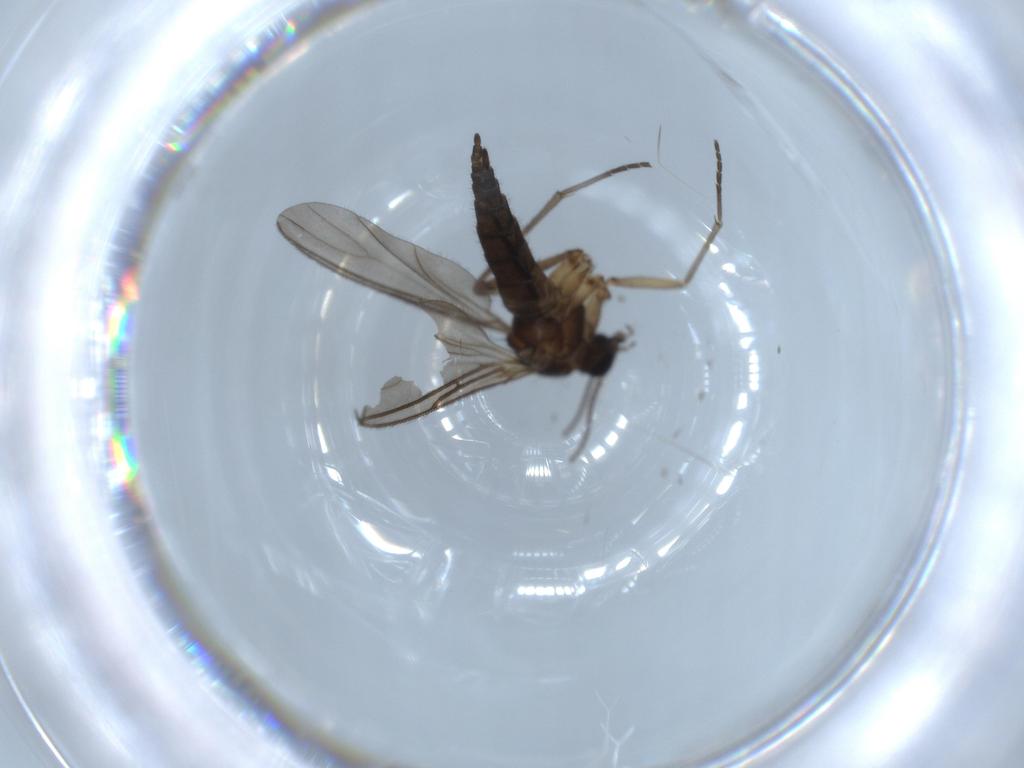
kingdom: Animalia
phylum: Arthropoda
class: Insecta
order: Diptera
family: Sciaridae
